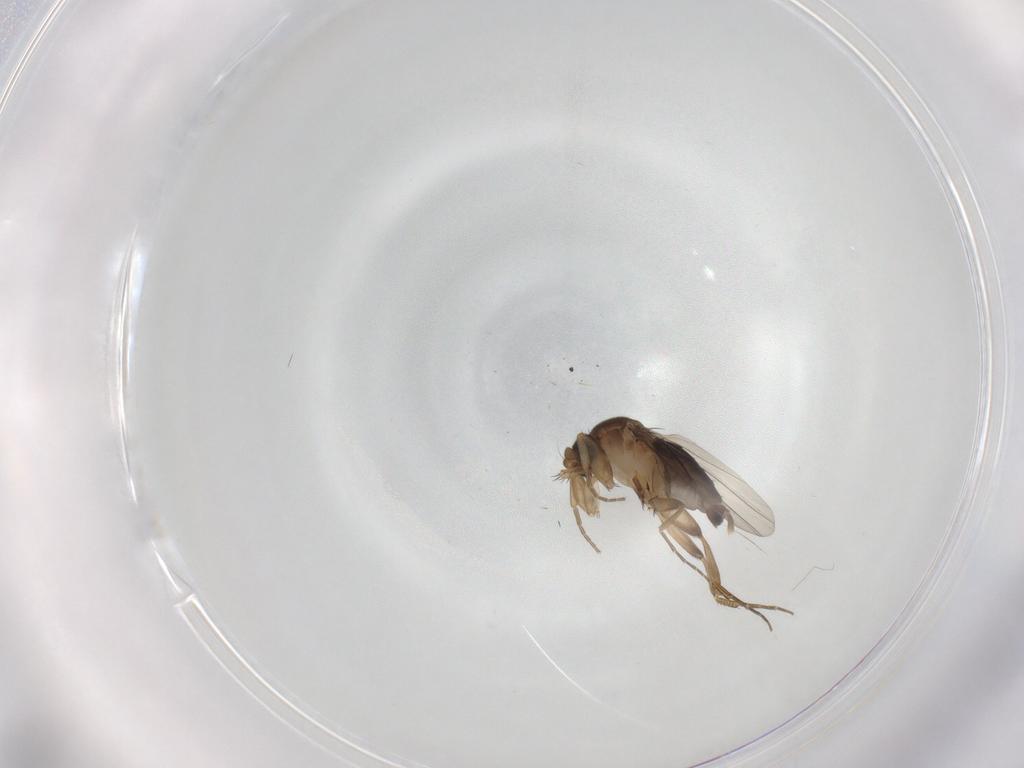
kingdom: Animalia
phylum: Arthropoda
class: Insecta
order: Diptera
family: Phoridae
